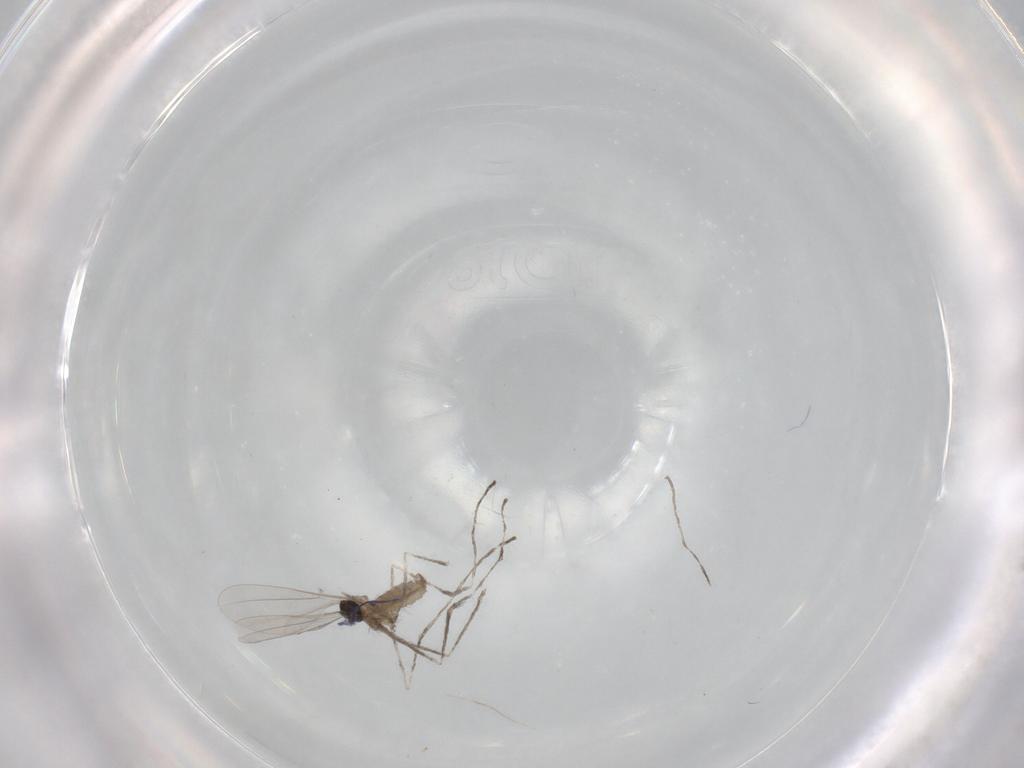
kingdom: Animalia
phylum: Arthropoda
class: Insecta
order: Diptera
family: Cecidomyiidae
